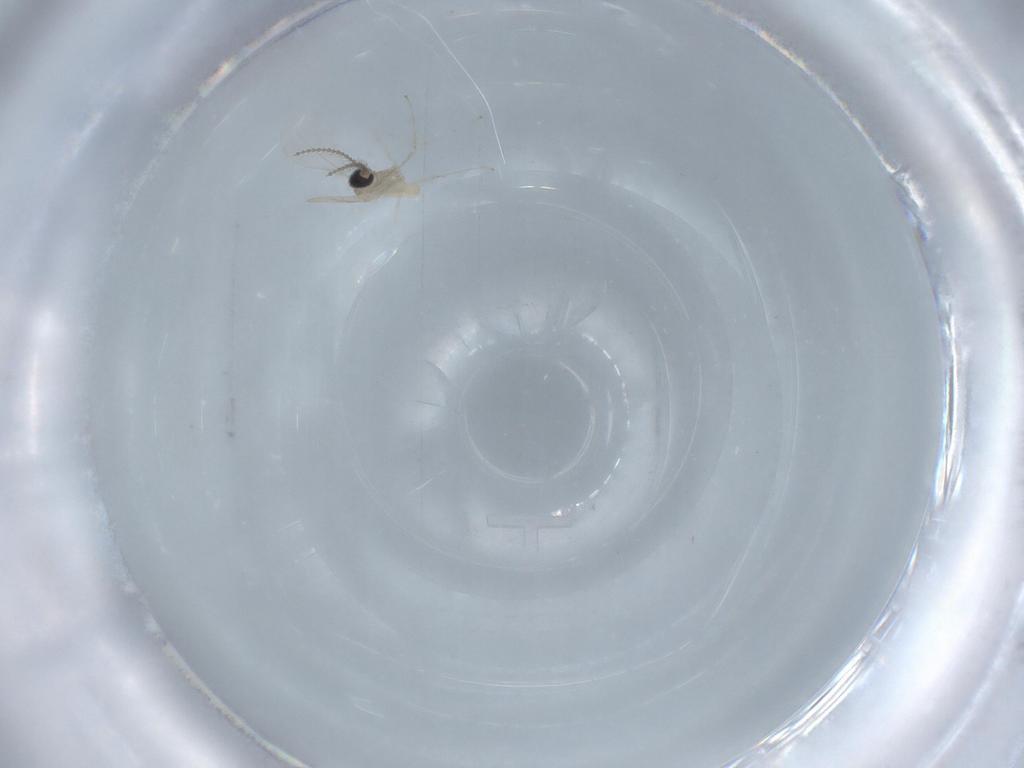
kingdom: Animalia
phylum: Arthropoda
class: Insecta
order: Diptera
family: Cecidomyiidae
